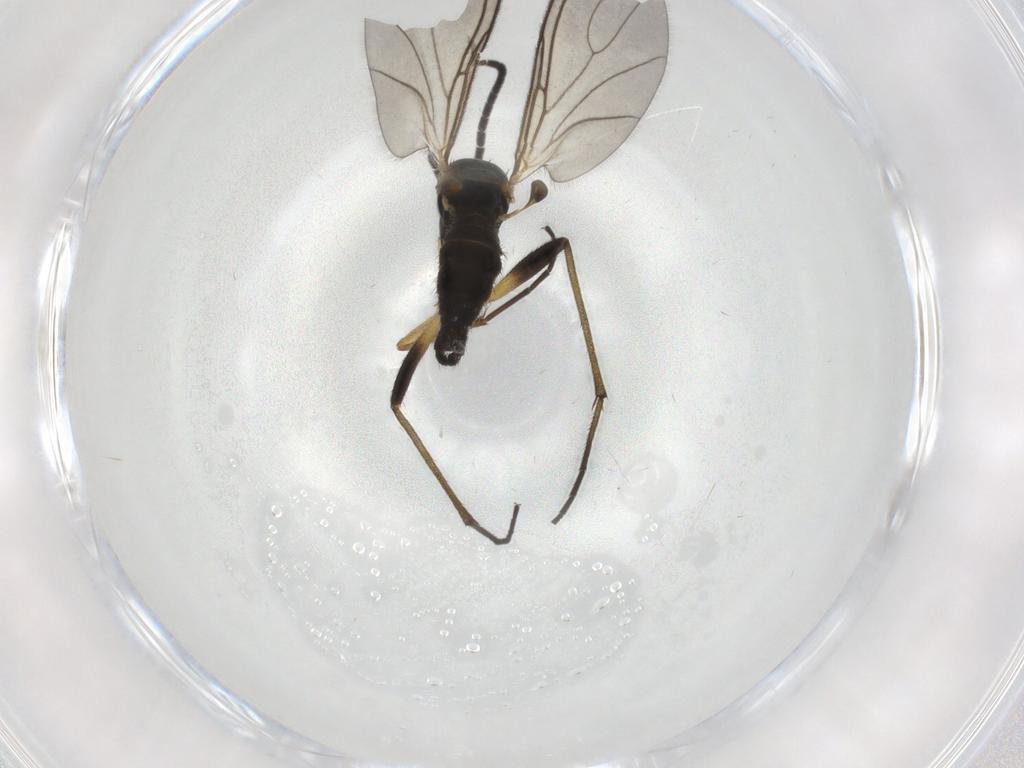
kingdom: Animalia
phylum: Arthropoda
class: Insecta
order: Diptera
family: Sciaridae
